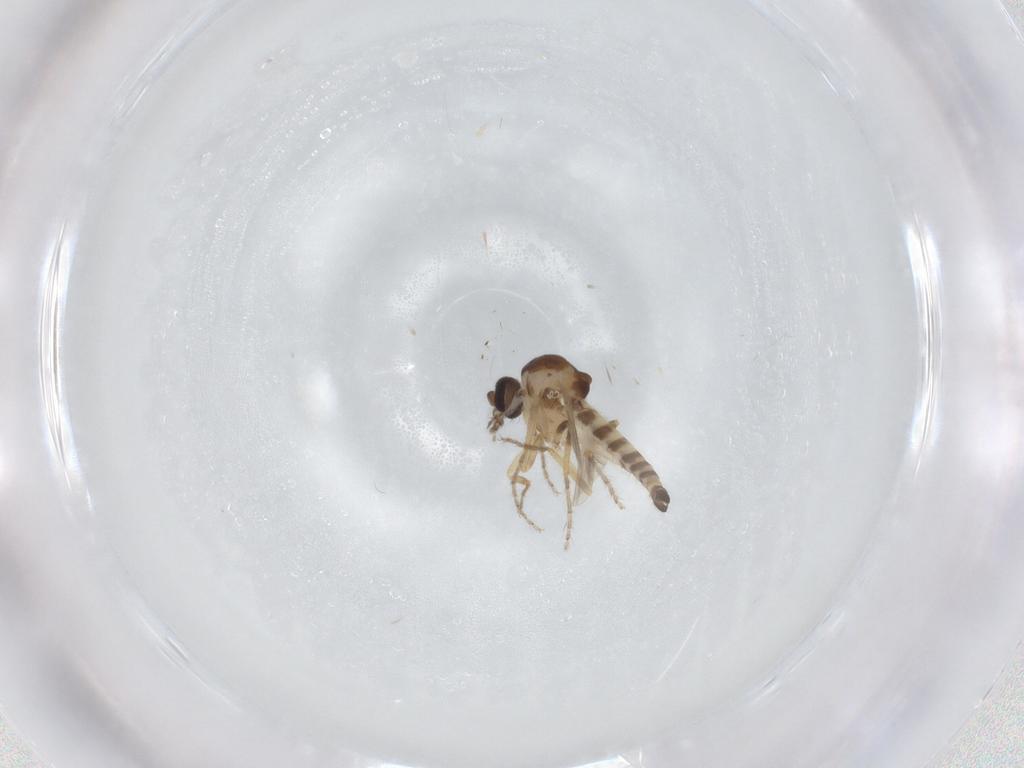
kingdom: Animalia
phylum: Arthropoda
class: Insecta
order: Diptera
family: Ceratopogonidae
